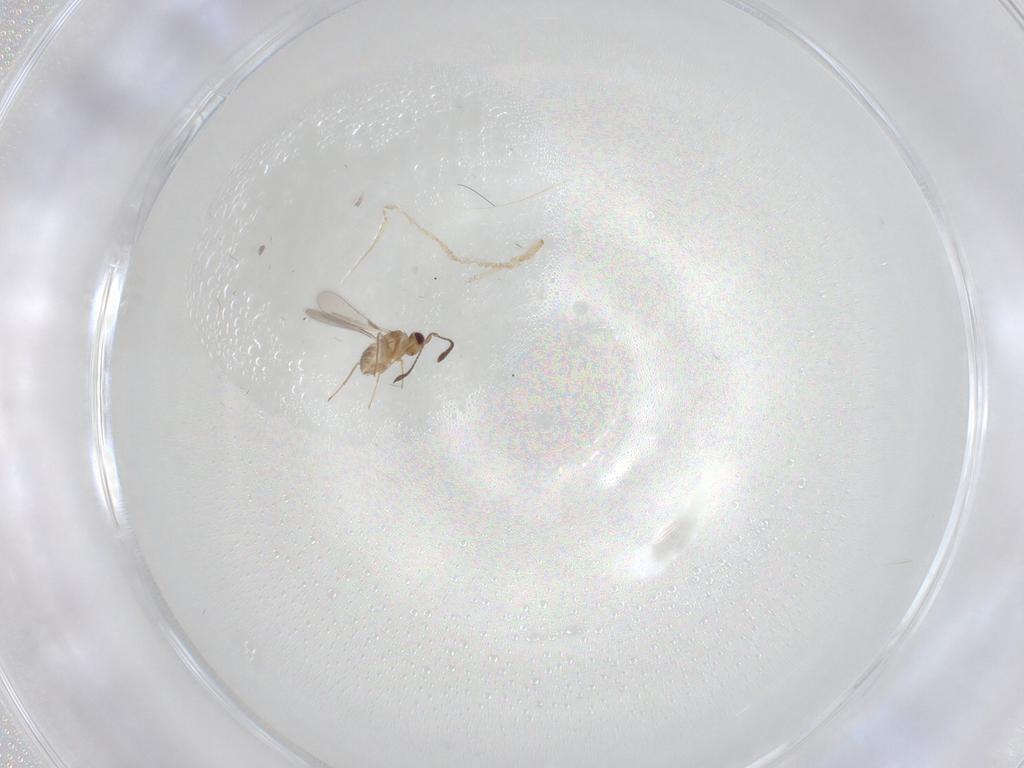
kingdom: Animalia
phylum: Arthropoda
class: Insecta
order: Hymenoptera
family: Mymaridae
